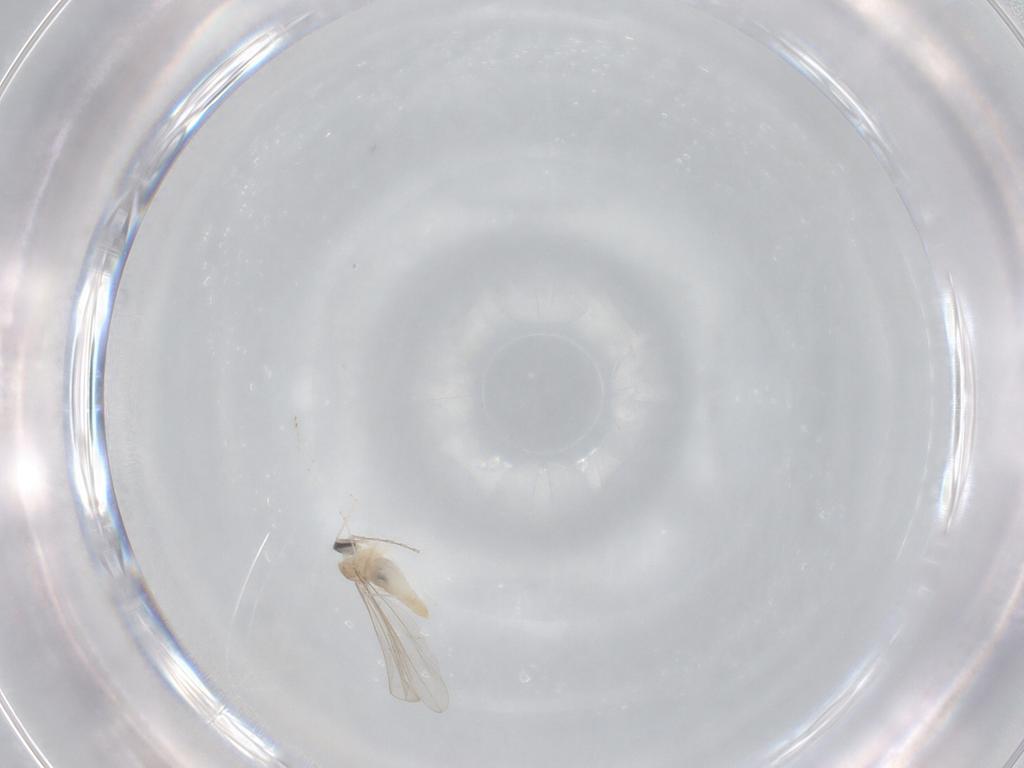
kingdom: Animalia
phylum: Arthropoda
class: Insecta
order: Diptera
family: Cecidomyiidae
